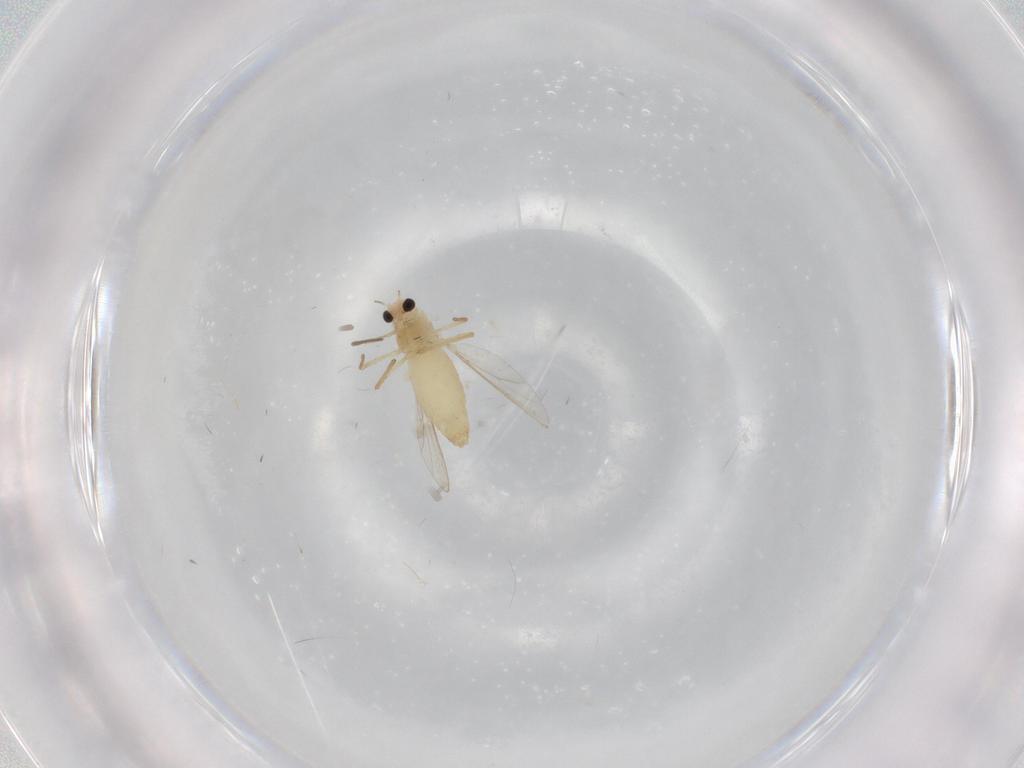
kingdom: Animalia
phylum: Arthropoda
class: Insecta
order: Diptera
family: Chironomidae
